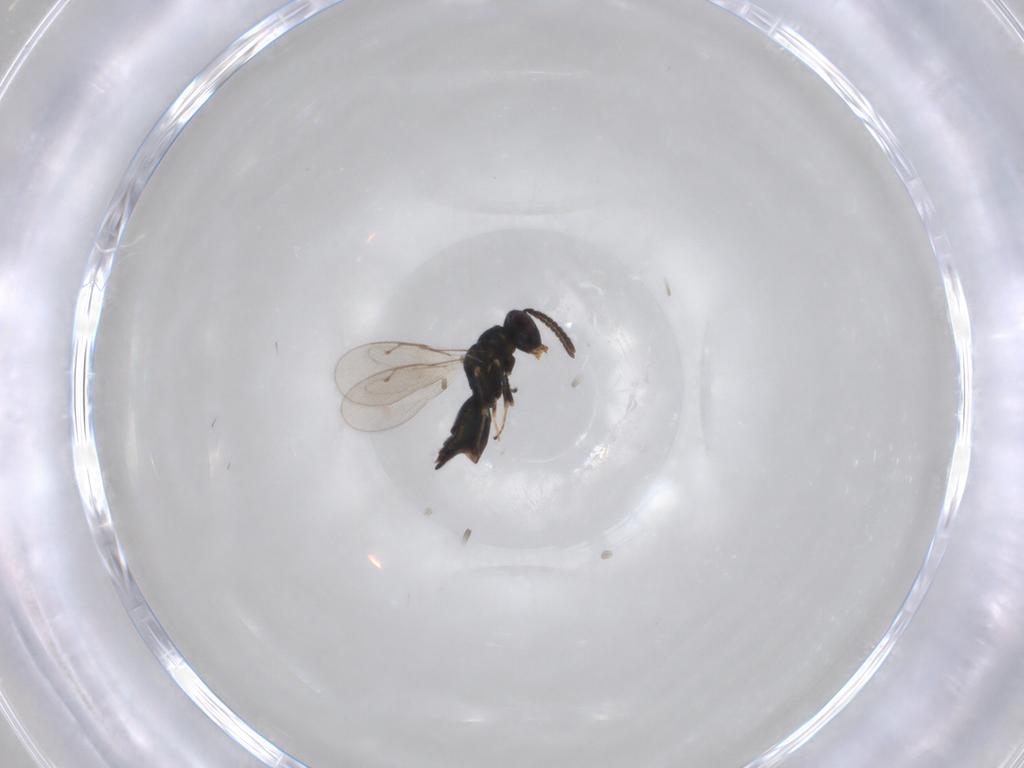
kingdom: Animalia
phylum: Arthropoda
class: Insecta
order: Hymenoptera
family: Pteromalidae
